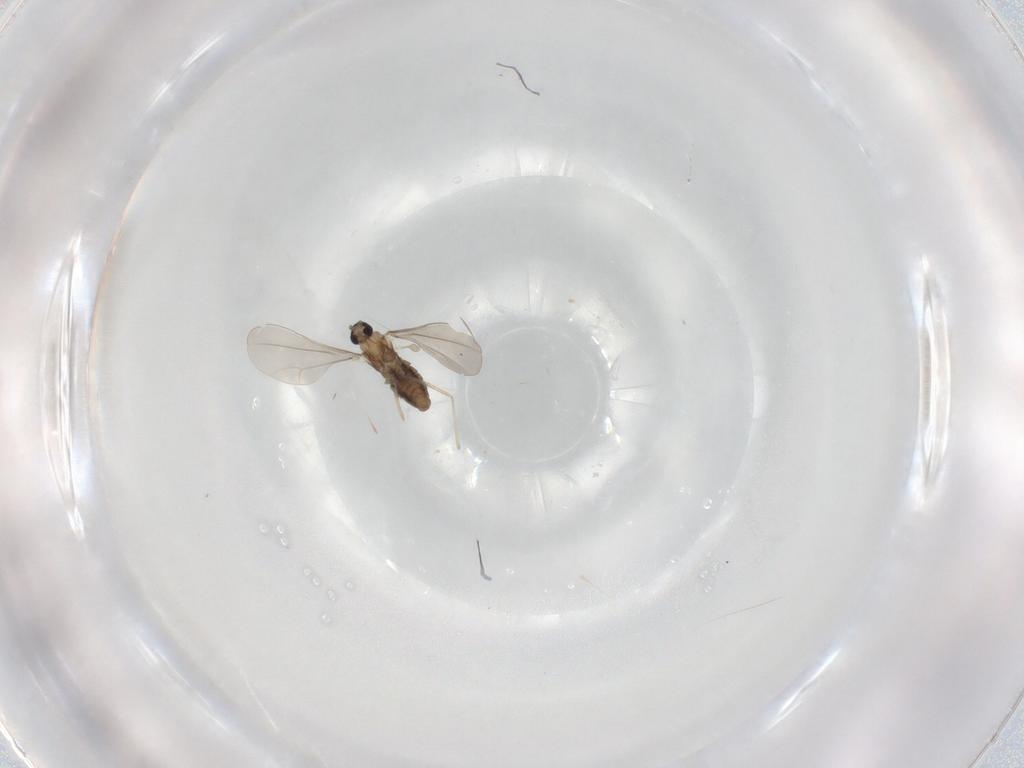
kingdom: Animalia
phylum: Arthropoda
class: Insecta
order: Diptera
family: Cecidomyiidae
